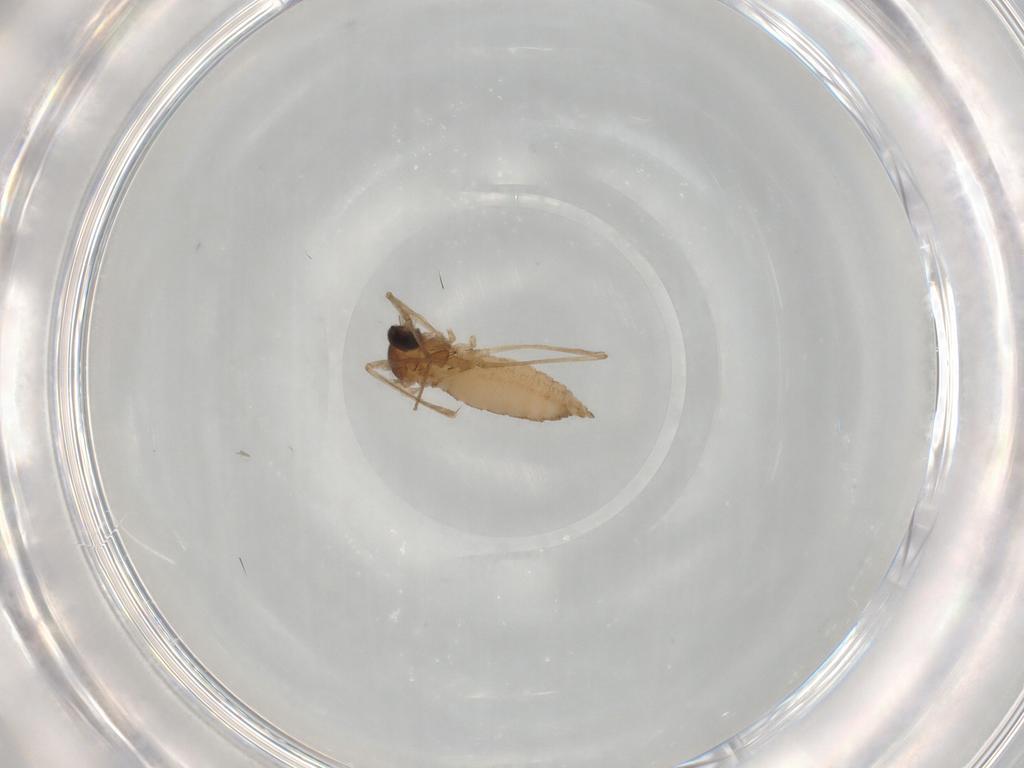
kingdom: Animalia
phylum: Arthropoda
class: Insecta
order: Diptera
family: Cecidomyiidae
